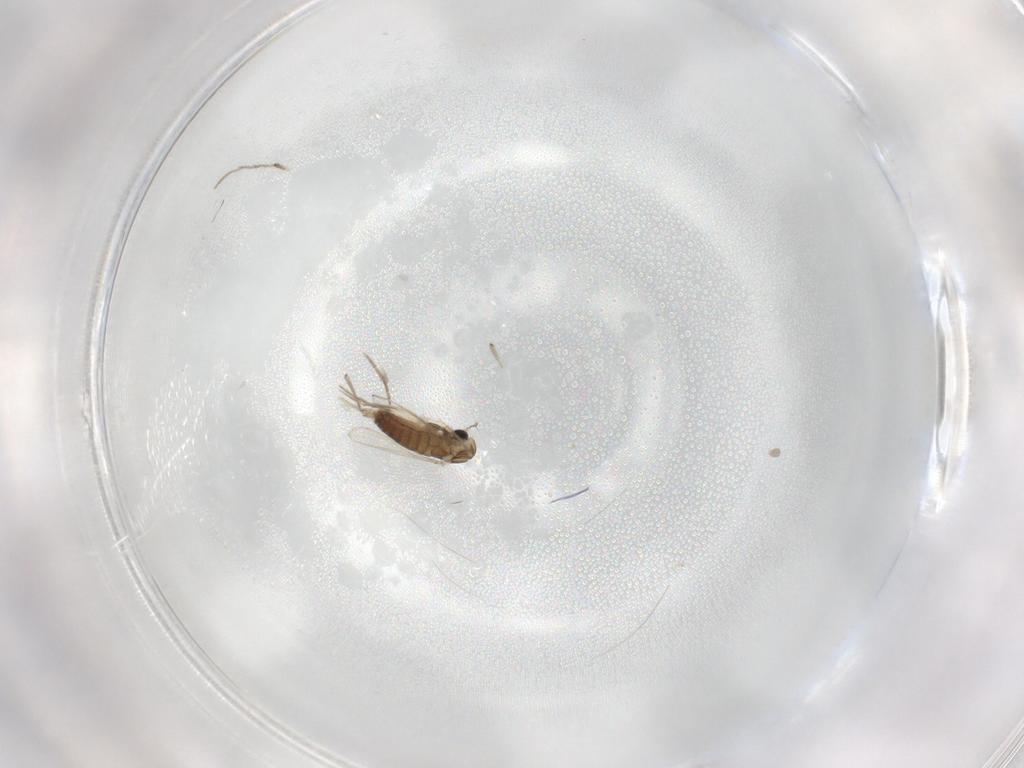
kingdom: Animalia
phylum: Arthropoda
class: Insecta
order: Diptera
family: Chironomidae
